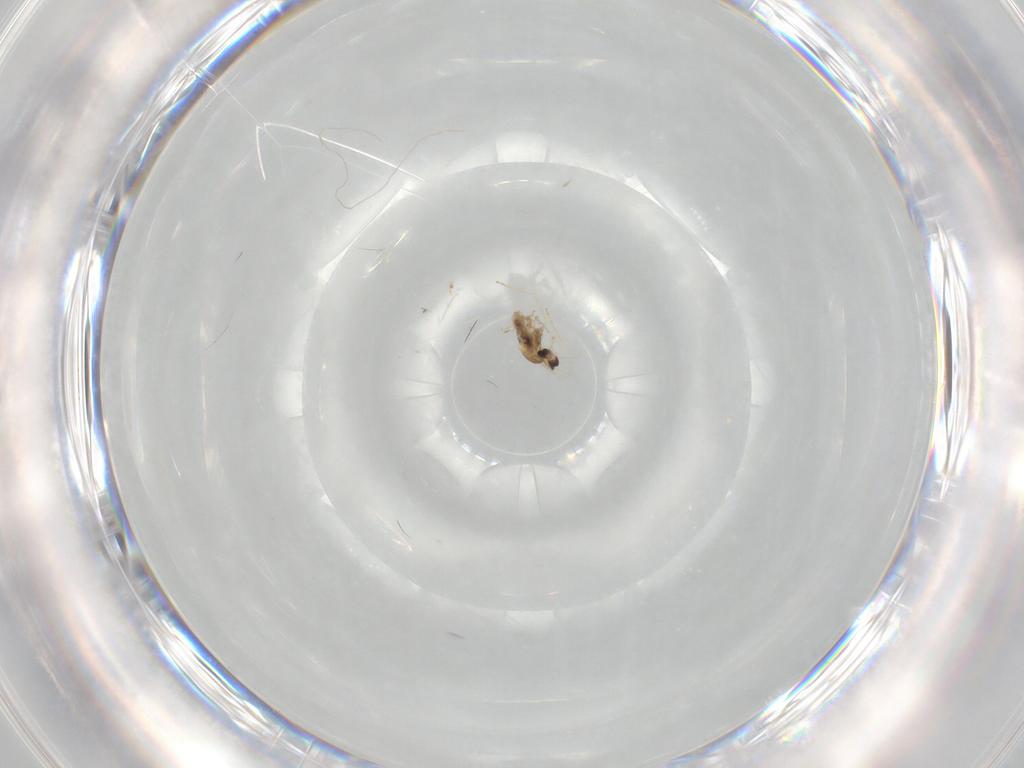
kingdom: Animalia
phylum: Arthropoda
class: Insecta
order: Diptera
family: Cecidomyiidae
